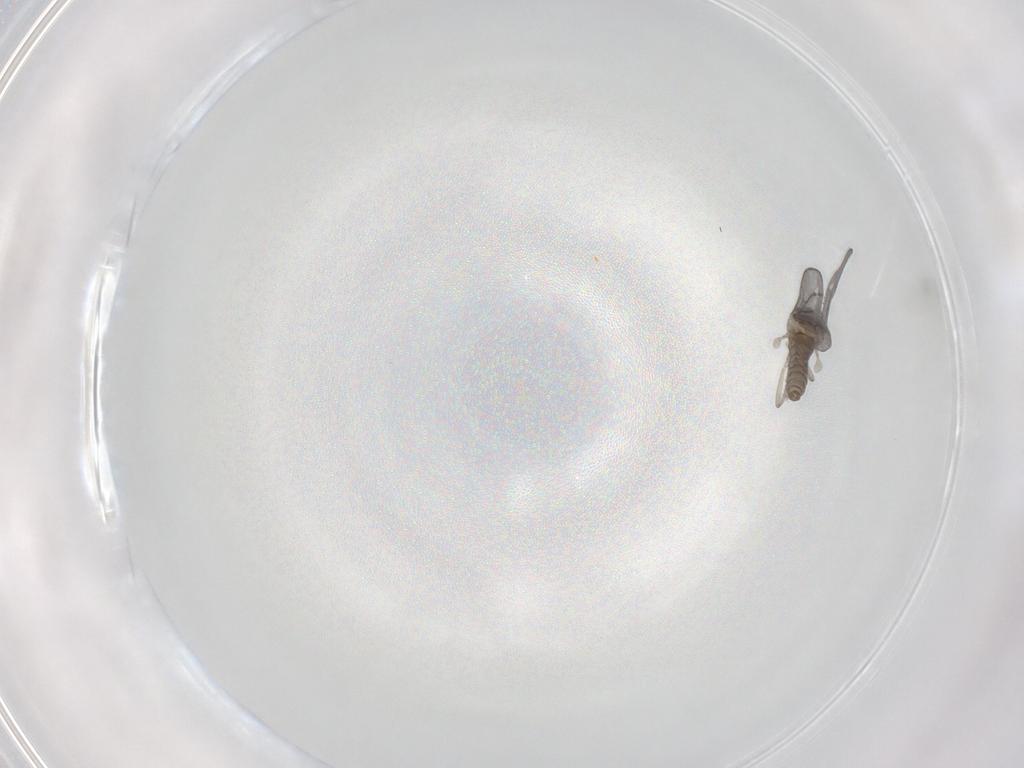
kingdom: Animalia
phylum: Arthropoda
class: Insecta
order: Diptera
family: Cecidomyiidae
